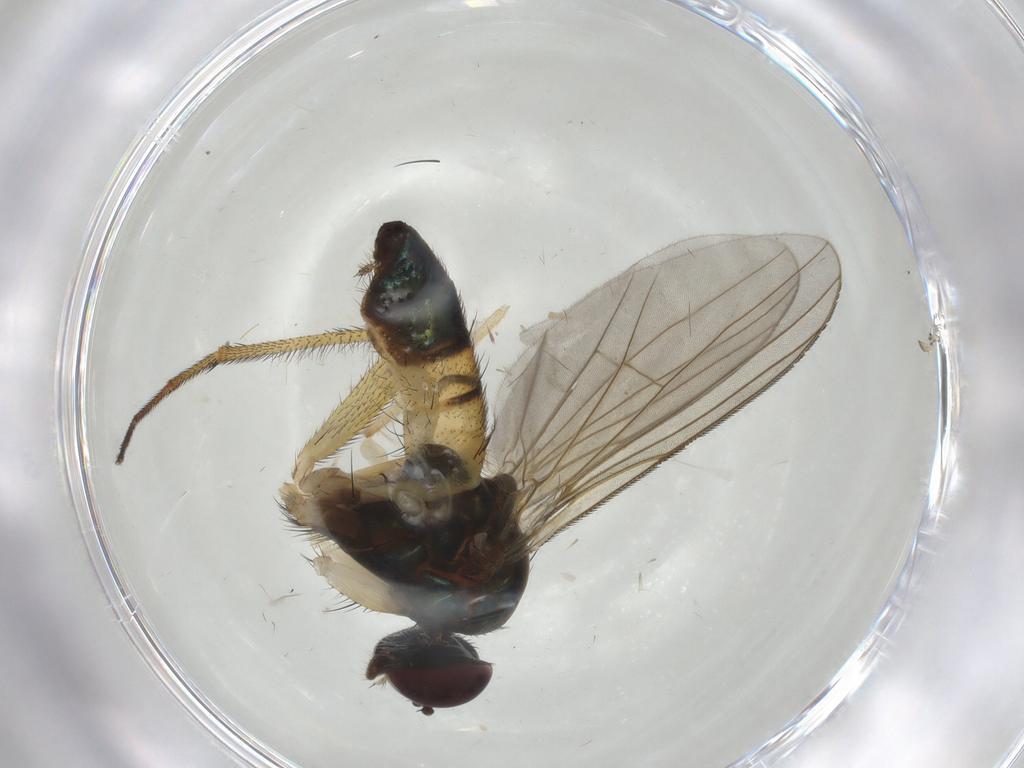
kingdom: Animalia
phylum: Arthropoda
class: Insecta
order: Diptera
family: Dolichopodidae
